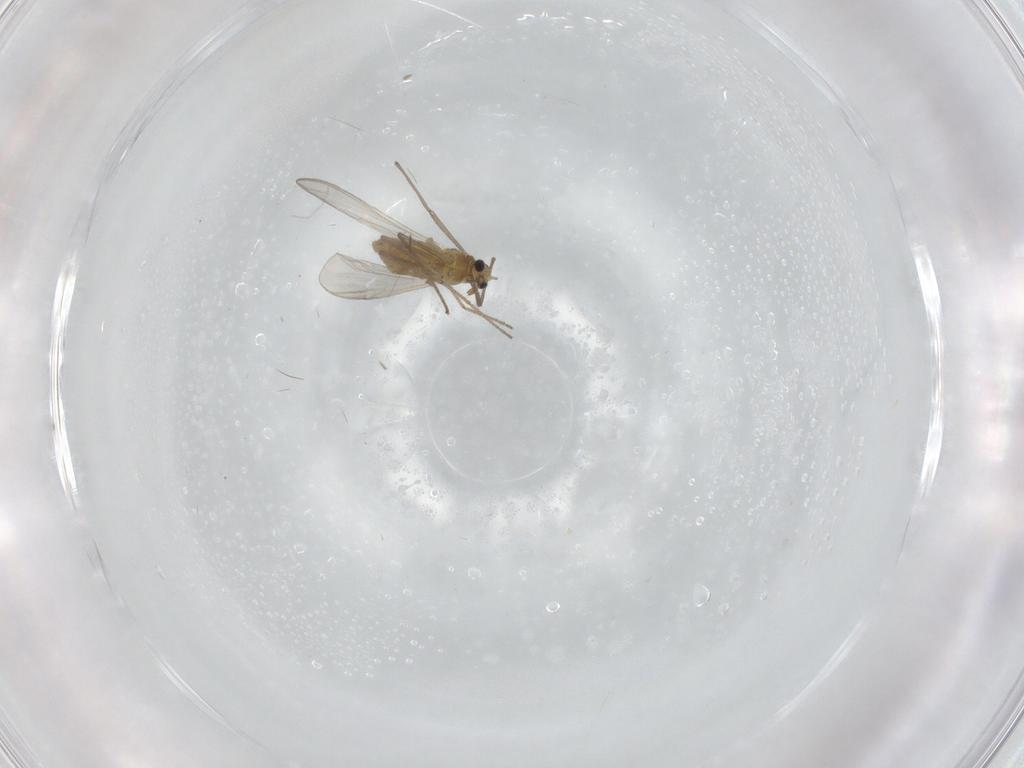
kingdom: Animalia
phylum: Arthropoda
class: Insecta
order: Diptera
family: Chironomidae
